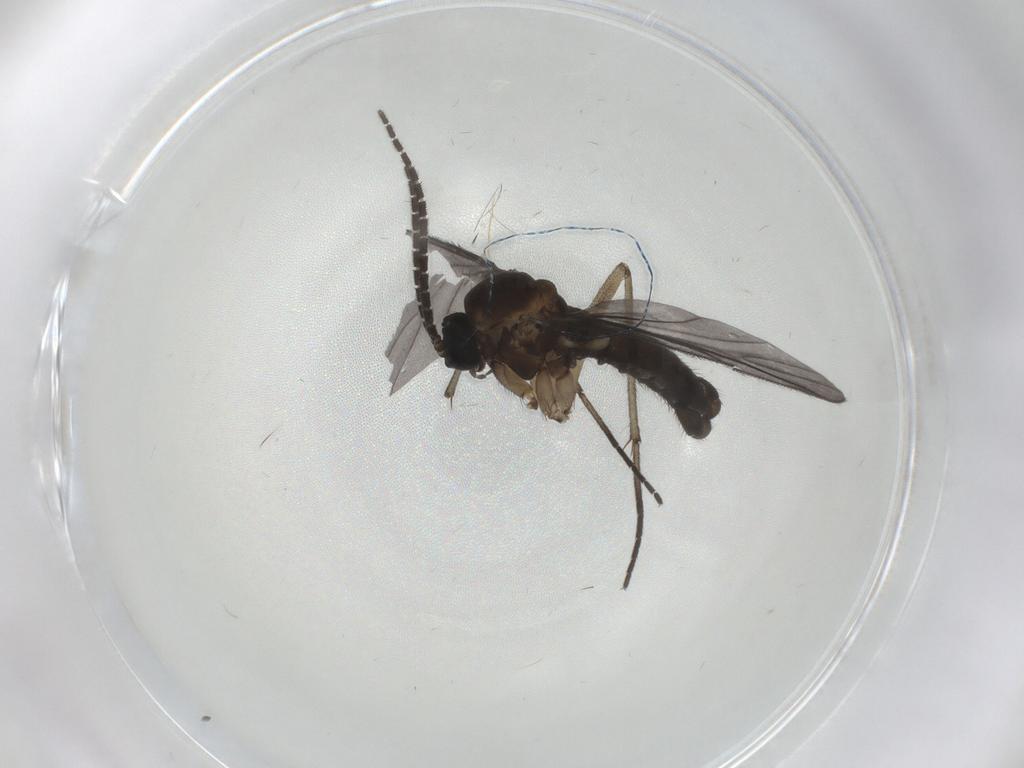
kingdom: Animalia
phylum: Arthropoda
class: Insecta
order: Diptera
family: Sciaridae
